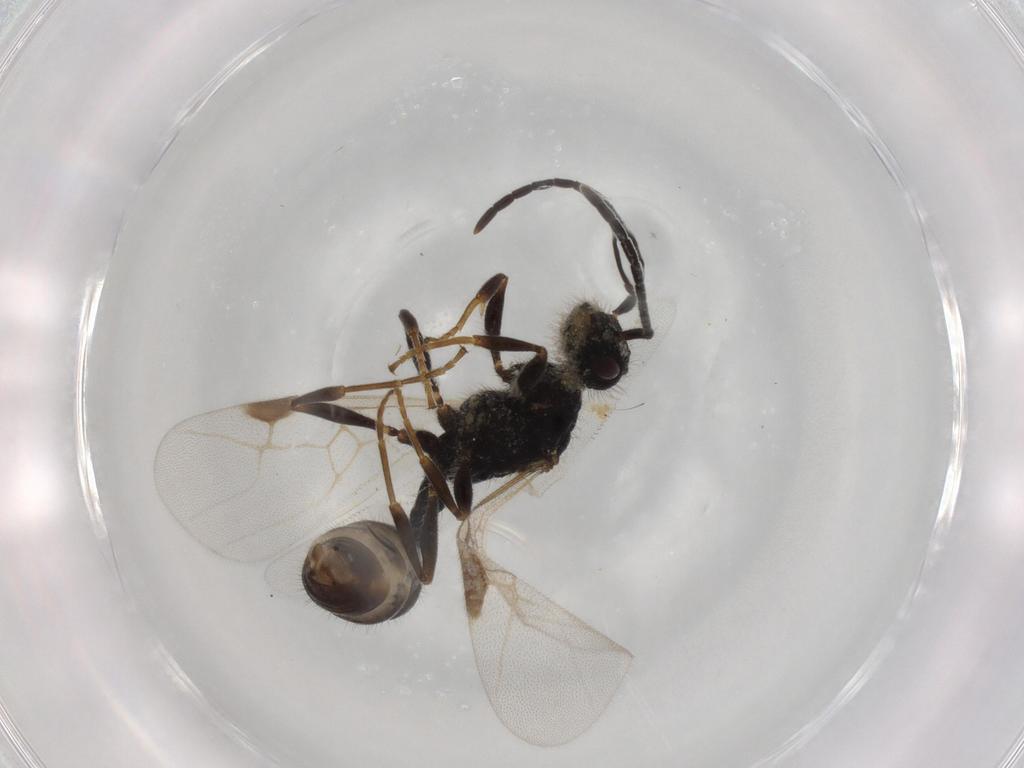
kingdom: Animalia
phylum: Arthropoda
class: Insecta
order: Hymenoptera
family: Formicidae
